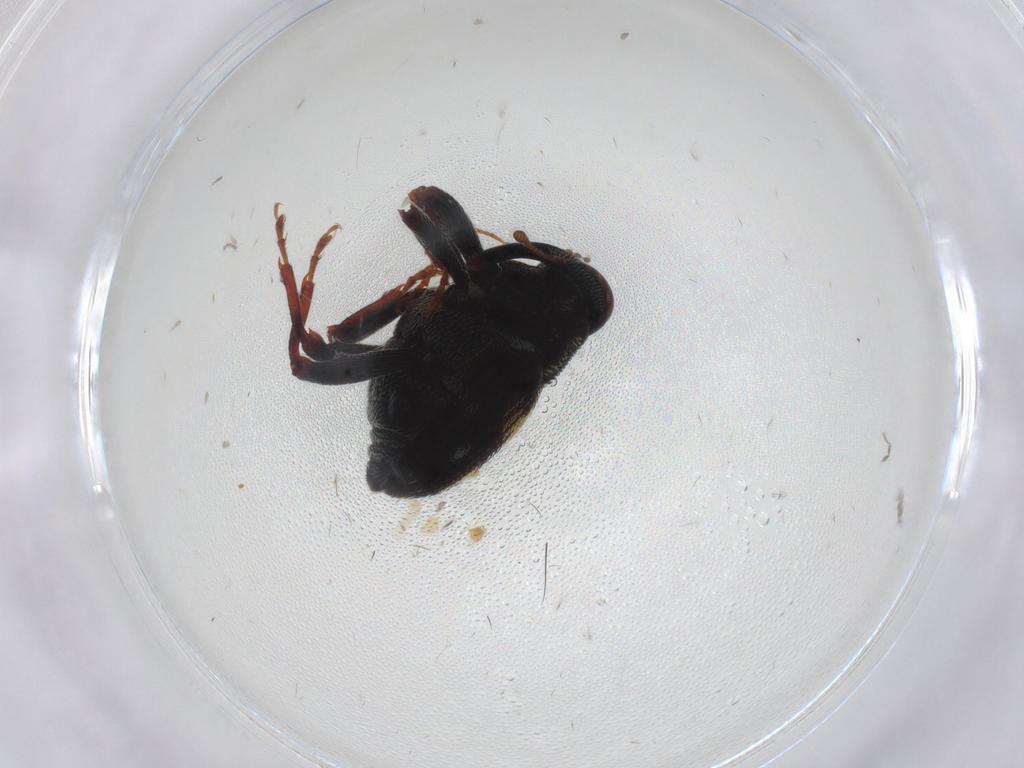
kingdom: Animalia
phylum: Arthropoda
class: Insecta
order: Coleoptera
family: Curculionidae
